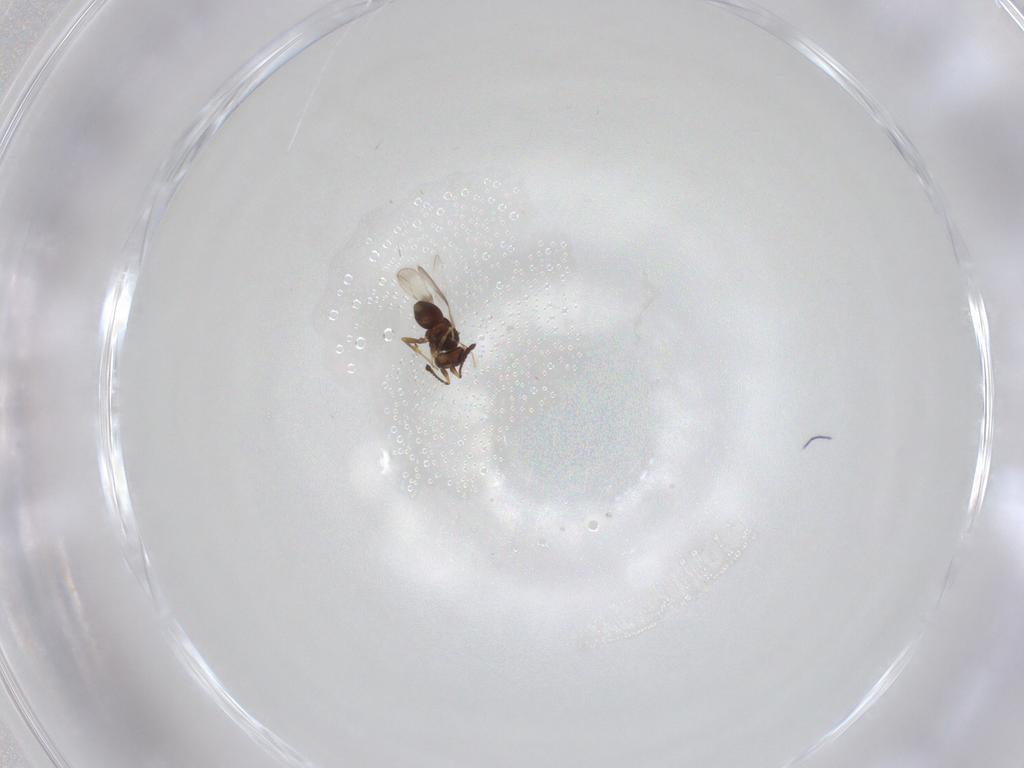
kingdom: Animalia
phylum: Arthropoda
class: Insecta
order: Hymenoptera
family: Ceraphronidae
